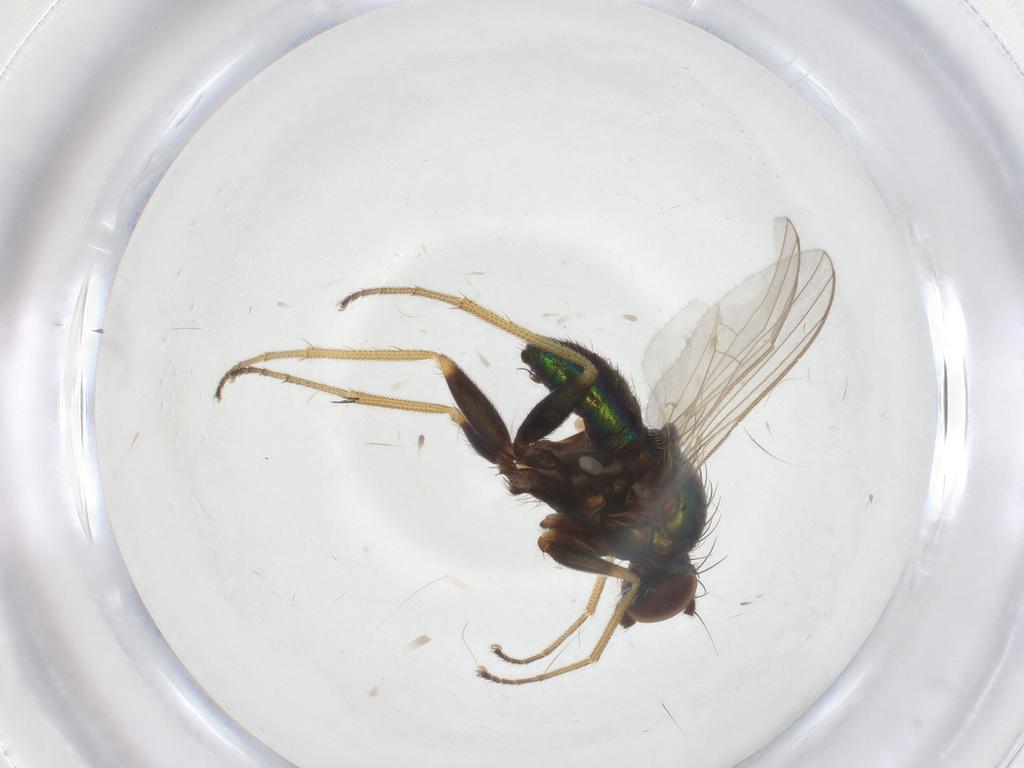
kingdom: Animalia
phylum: Arthropoda
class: Insecta
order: Diptera
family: Dolichopodidae
